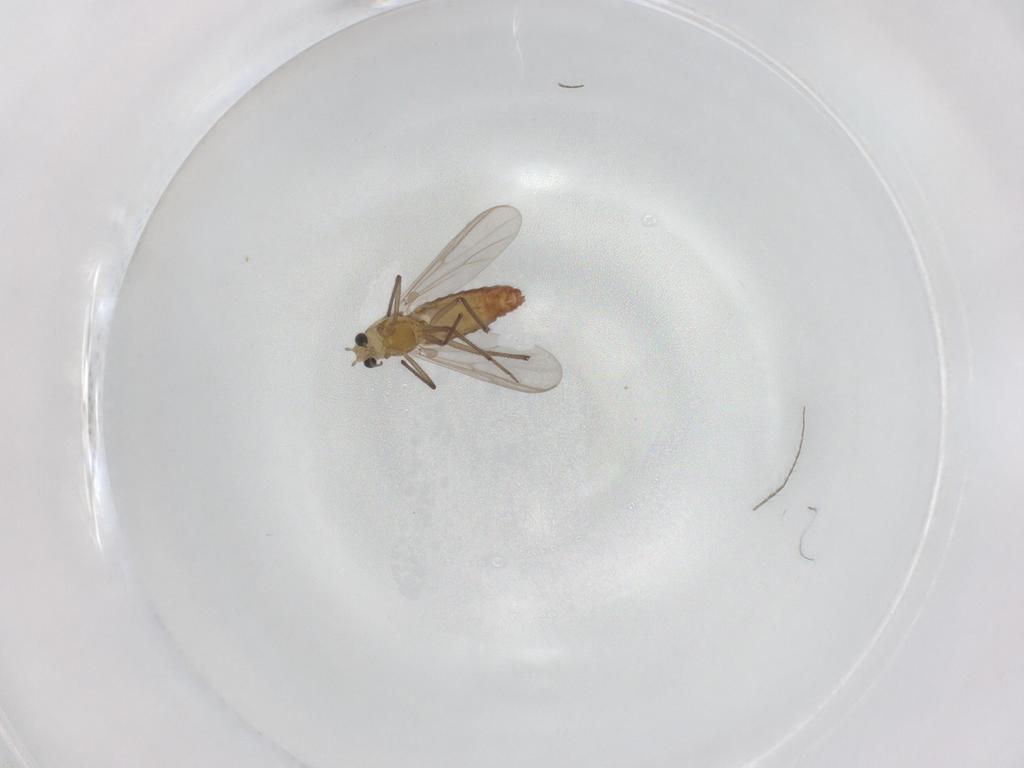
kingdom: Animalia
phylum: Arthropoda
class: Insecta
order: Diptera
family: Chironomidae
